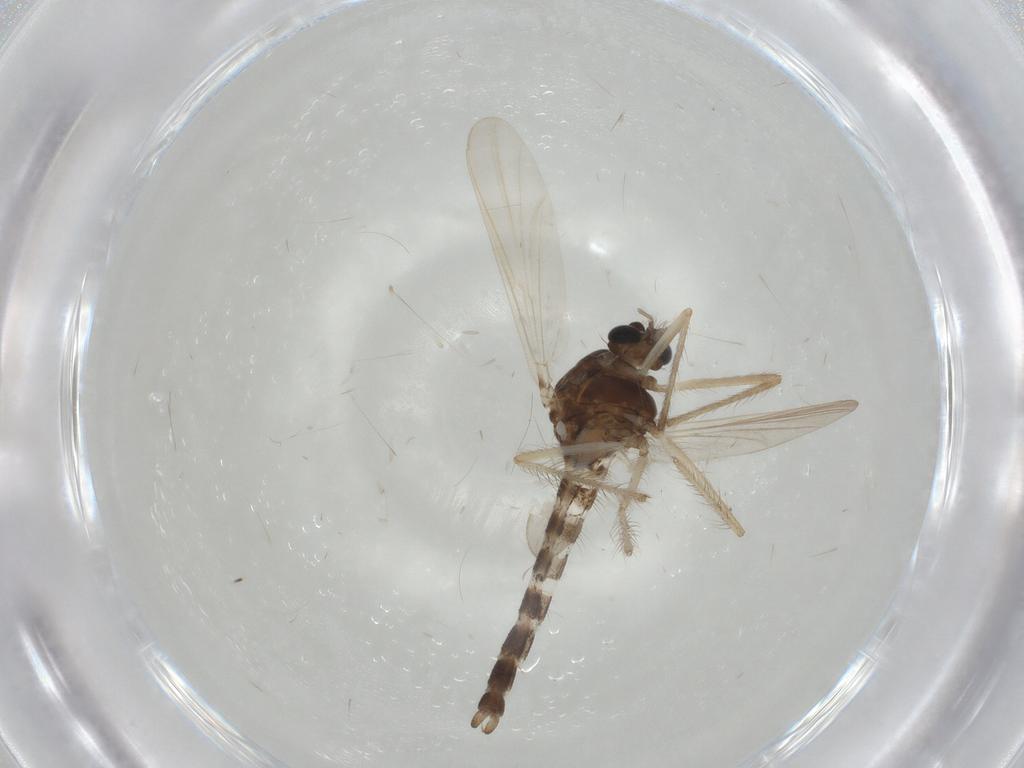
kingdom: Animalia
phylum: Arthropoda
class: Insecta
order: Diptera
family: Chironomidae
